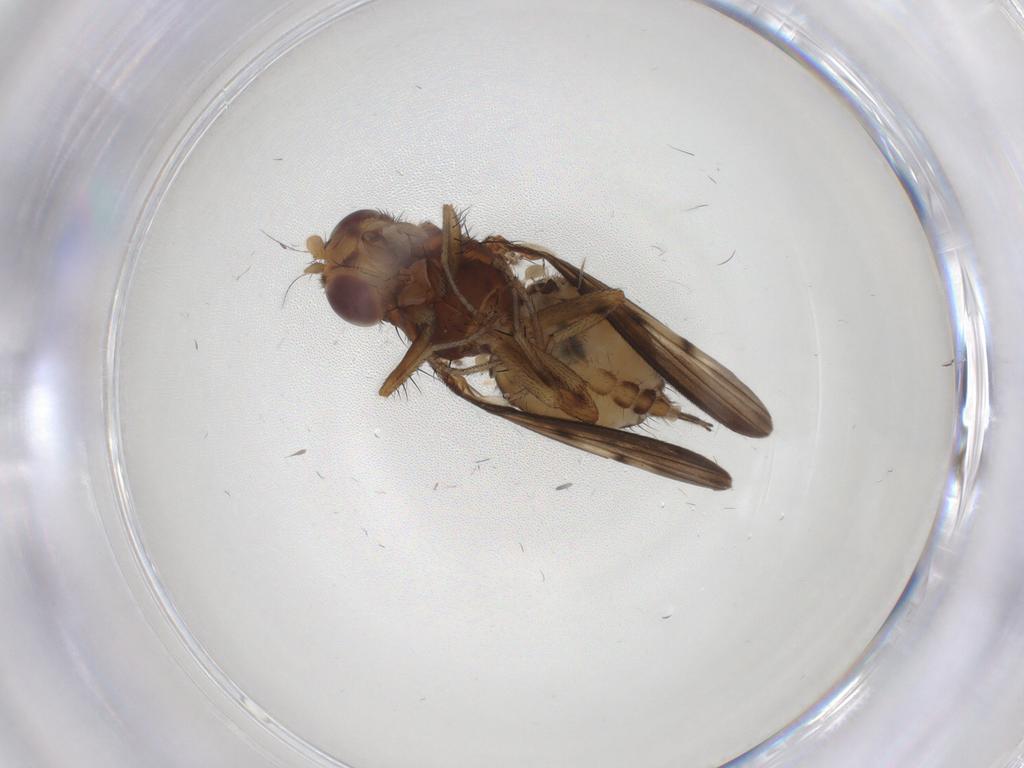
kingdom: Animalia
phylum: Arthropoda
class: Insecta
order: Diptera
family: Lauxaniidae
